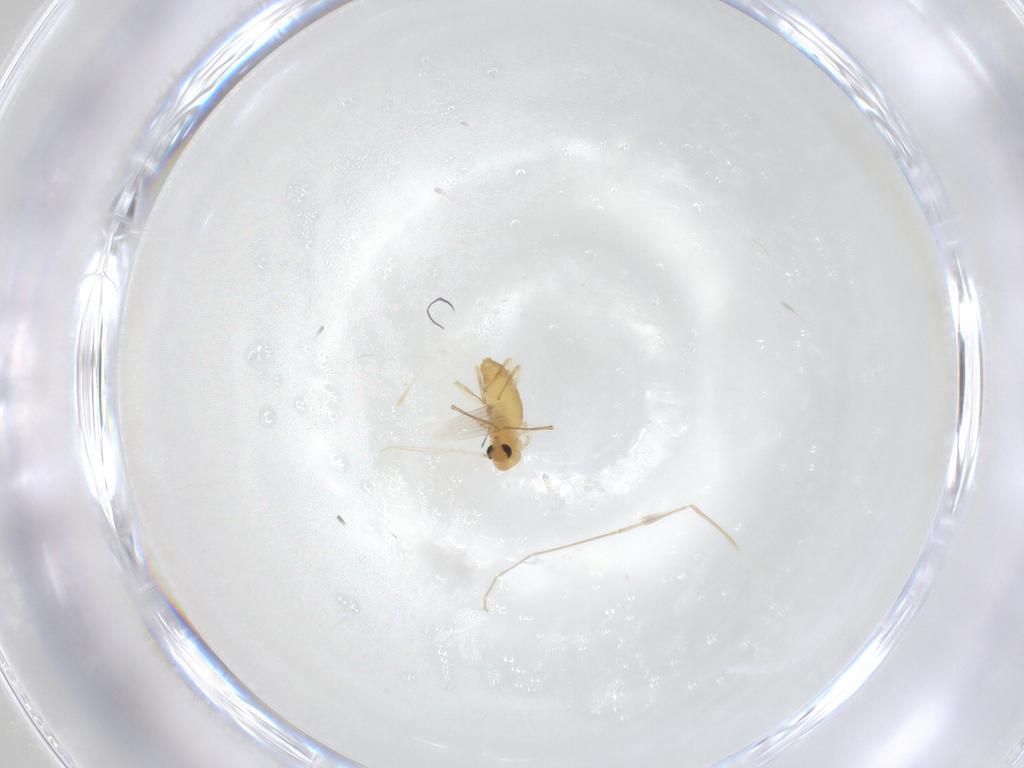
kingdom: Animalia
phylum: Arthropoda
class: Insecta
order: Diptera
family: Chironomidae
